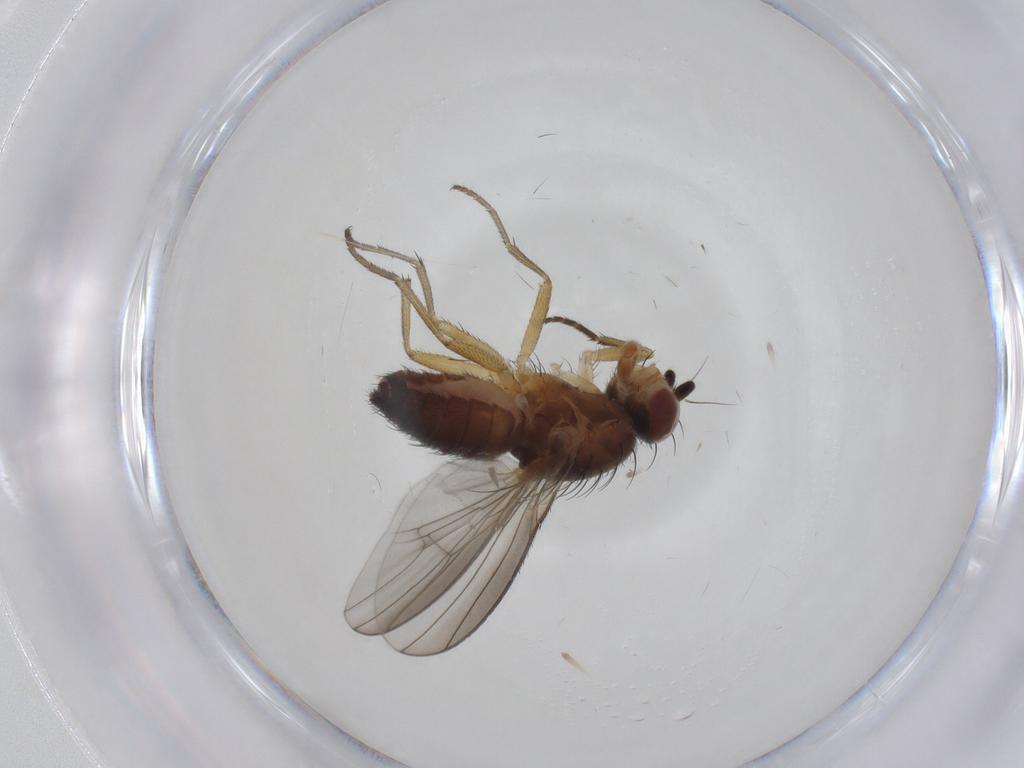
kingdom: Animalia
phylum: Arthropoda
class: Insecta
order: Diptera
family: Heleomyzidae
